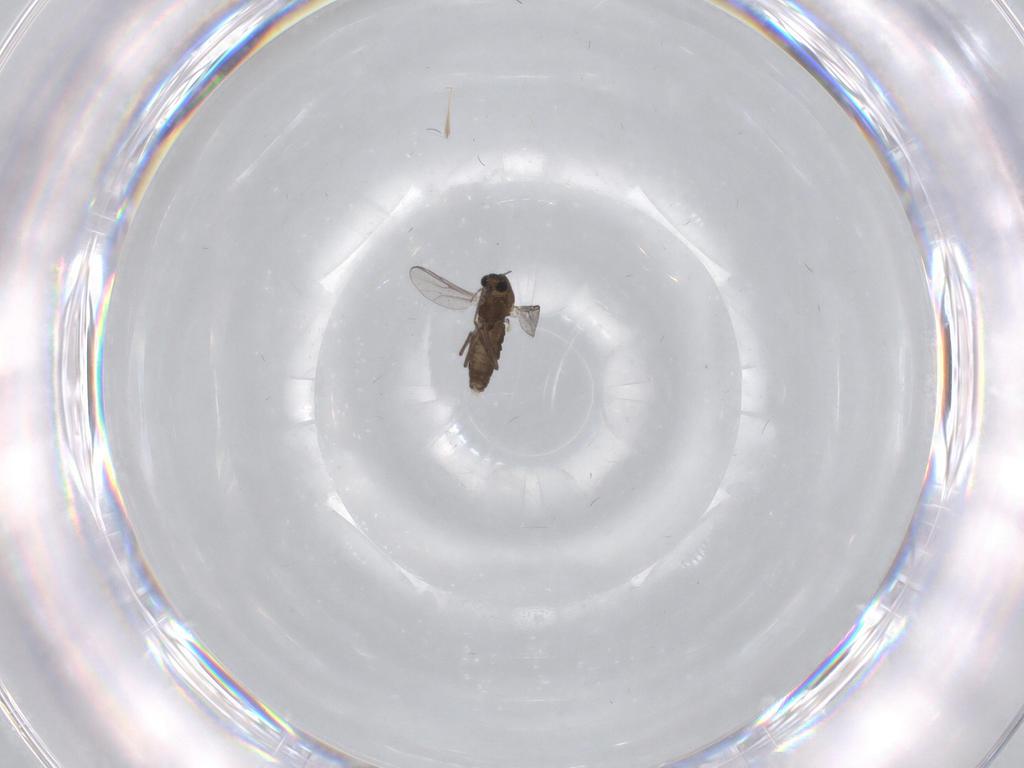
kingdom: Animalia
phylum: Arthropoda
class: Insecta
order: Diptera
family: Chironomidae
